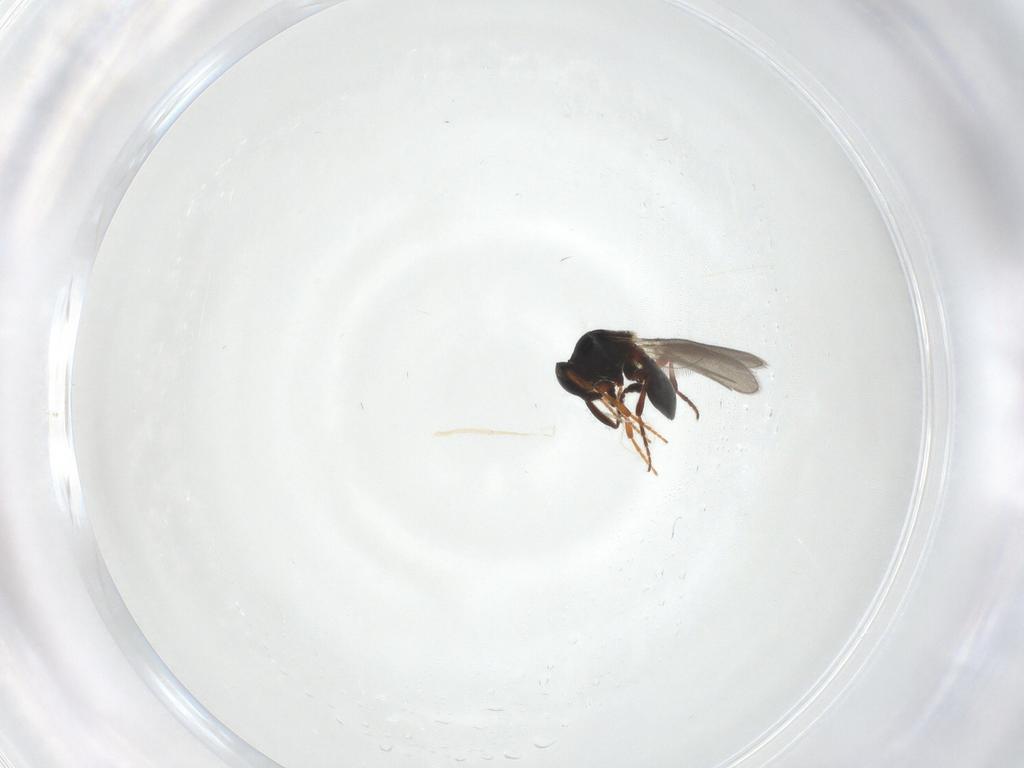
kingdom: Animalia
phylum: Arthropoda
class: Insecta
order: Hymenoptera
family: Platygastridae
